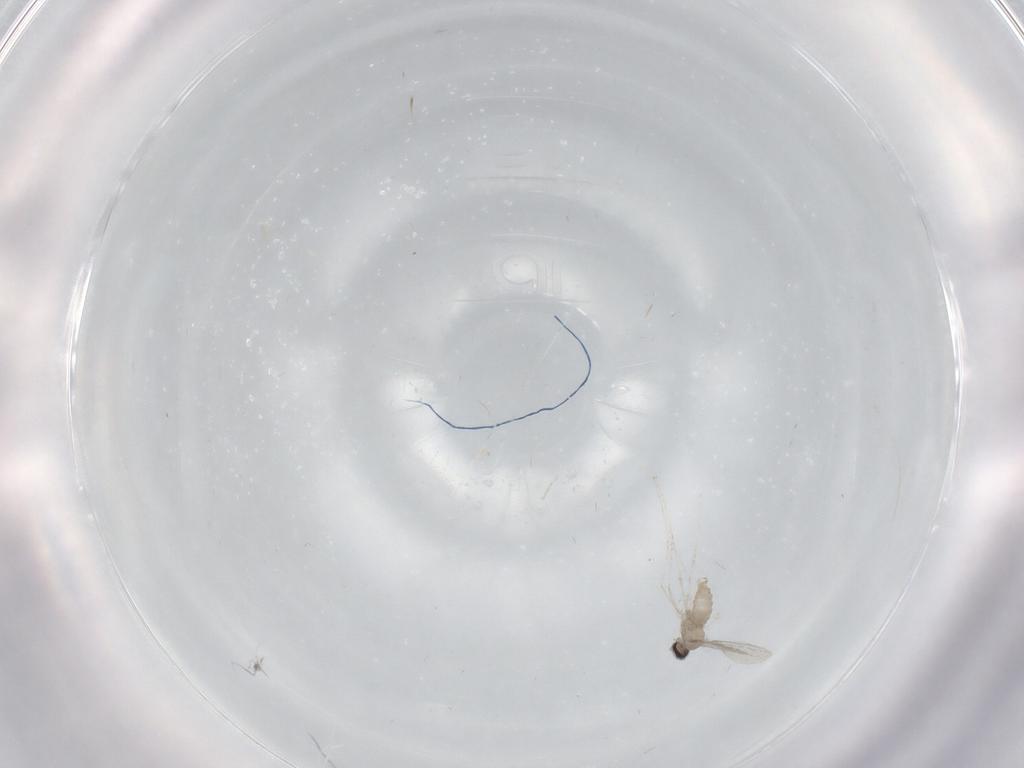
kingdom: Animalia
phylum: Arthropoda
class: Insecta
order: Diptera
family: Cecidomyiidae
